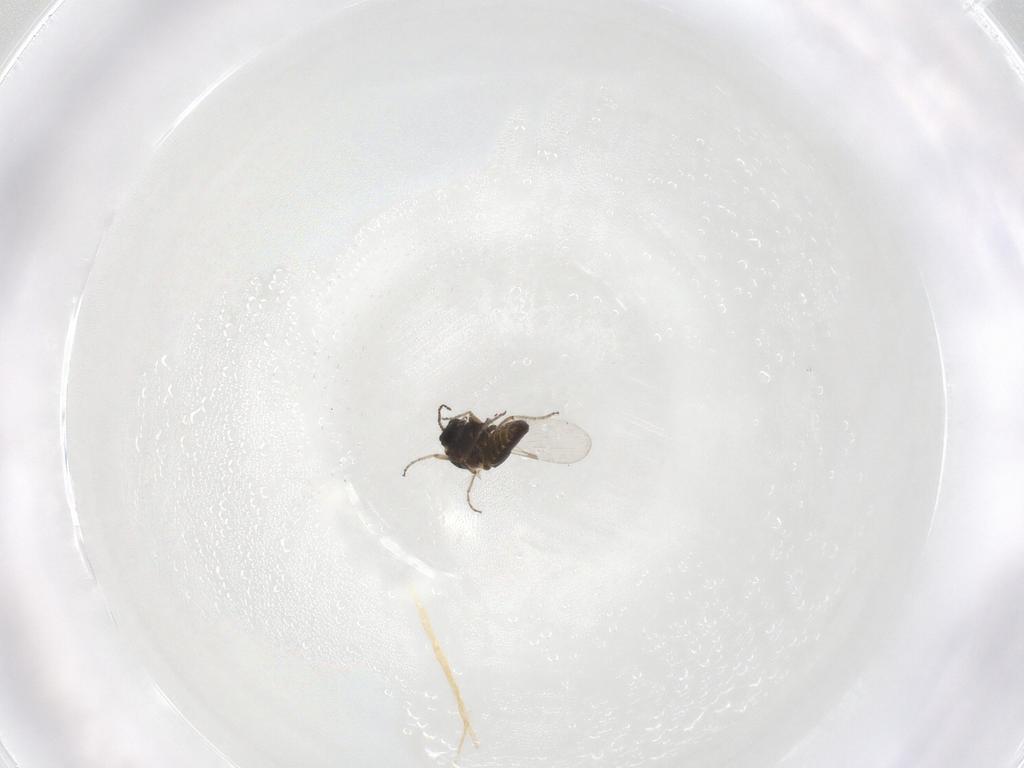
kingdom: Animalia
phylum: Arthropoda
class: Insecta
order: Diptera
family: Ceratopogonidae
